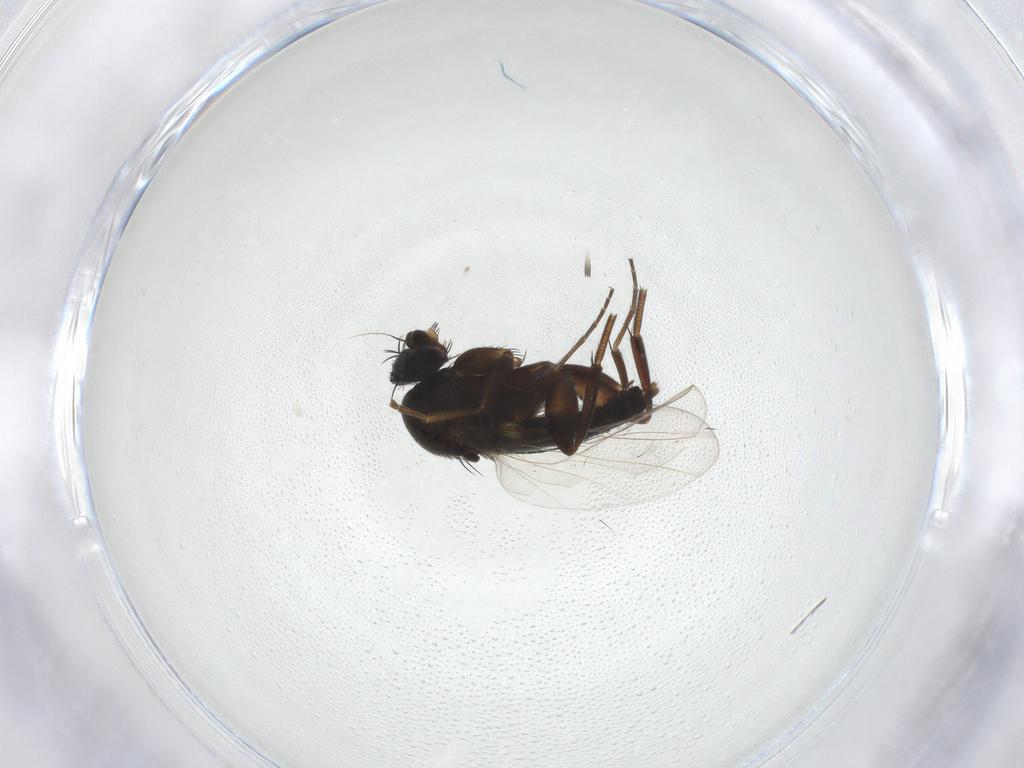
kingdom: Animalia
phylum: Arthropoda
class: Insecta
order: Diptera
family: Phoridae
